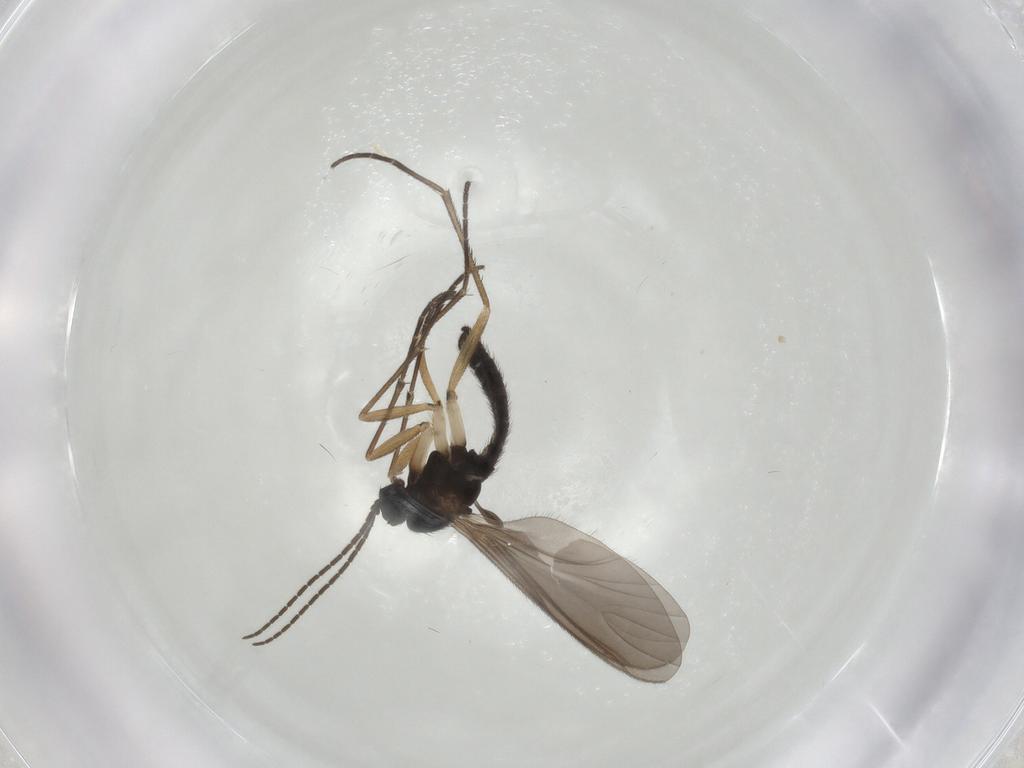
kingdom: Animalia
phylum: Arthropoda
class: Insecta
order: Diptera
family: Sciaridae
